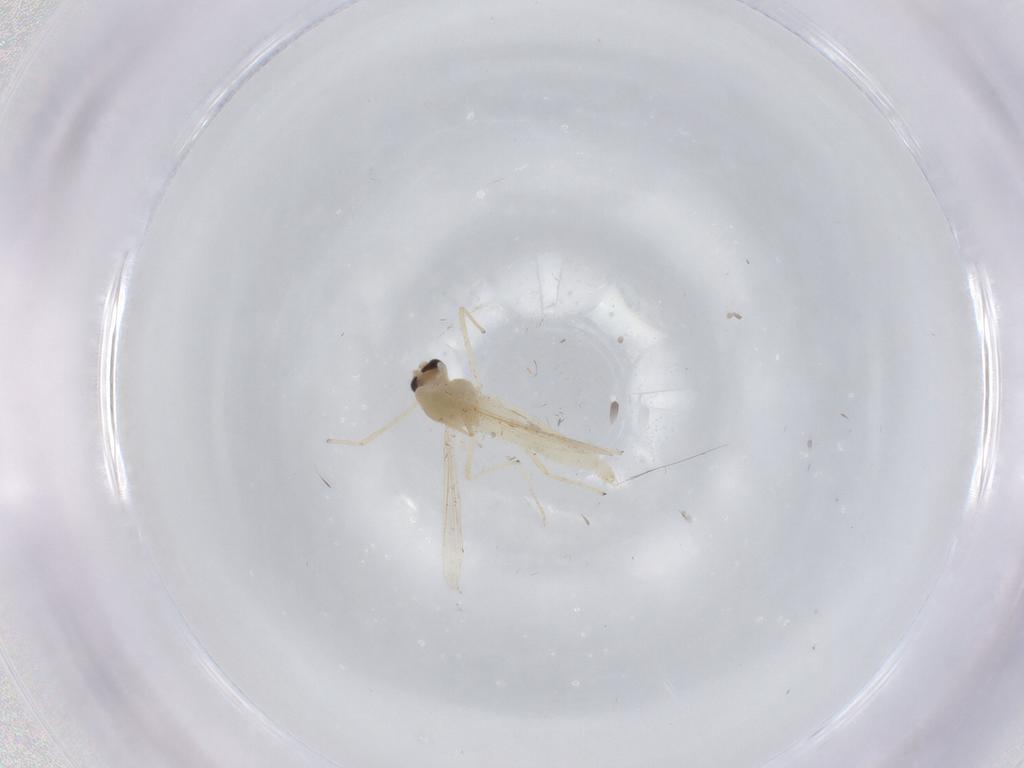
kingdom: Animalia
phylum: Arthropoda
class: Insecta
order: Diptera
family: Chironomidae
